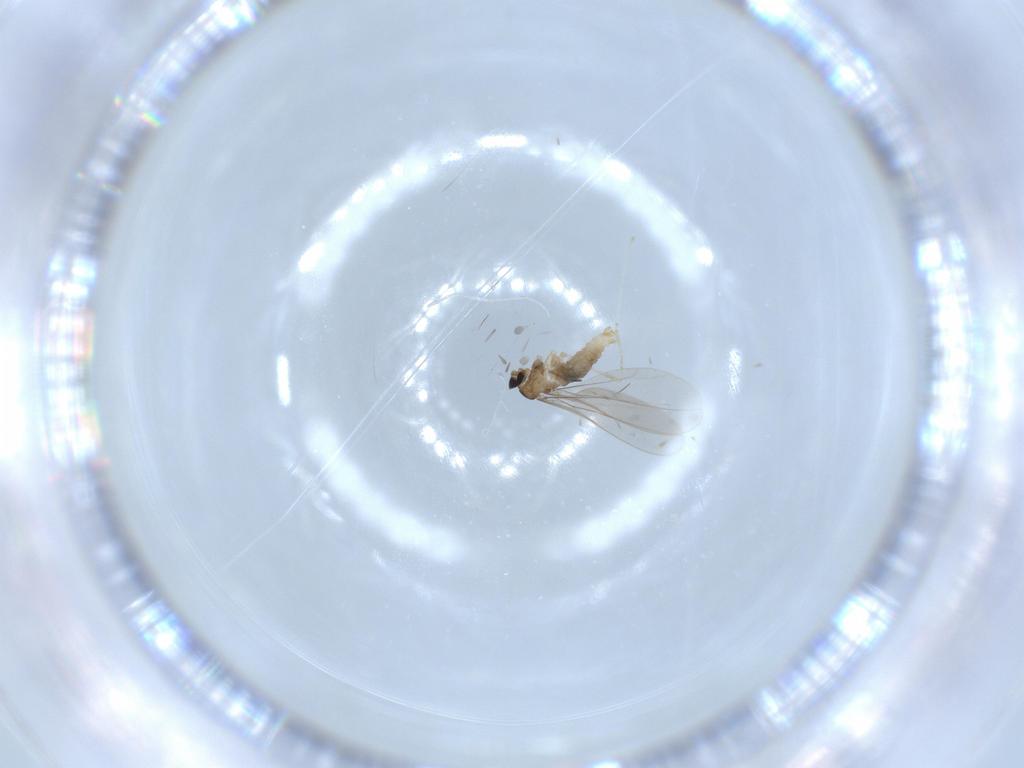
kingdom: Animalia
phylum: Arthropoda
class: Insecta
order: Diptera
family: Cecidomyiidae
